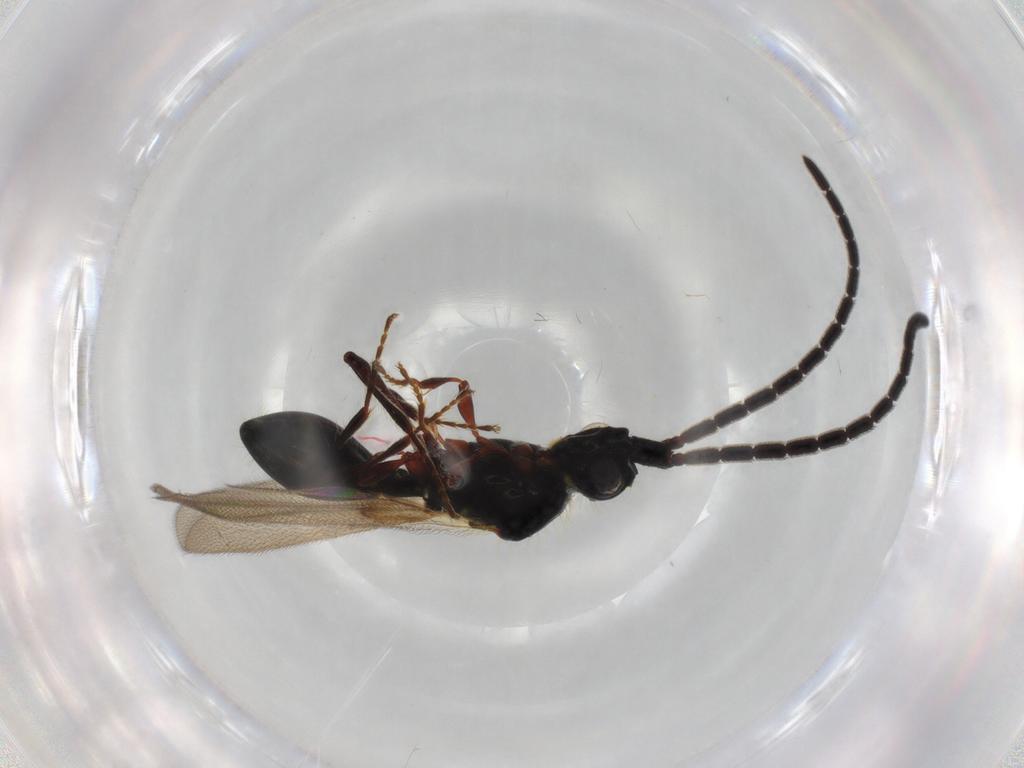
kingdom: Animalia
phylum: Arthropoda
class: Insecta
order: Hymenoptera
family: Diapriidae
